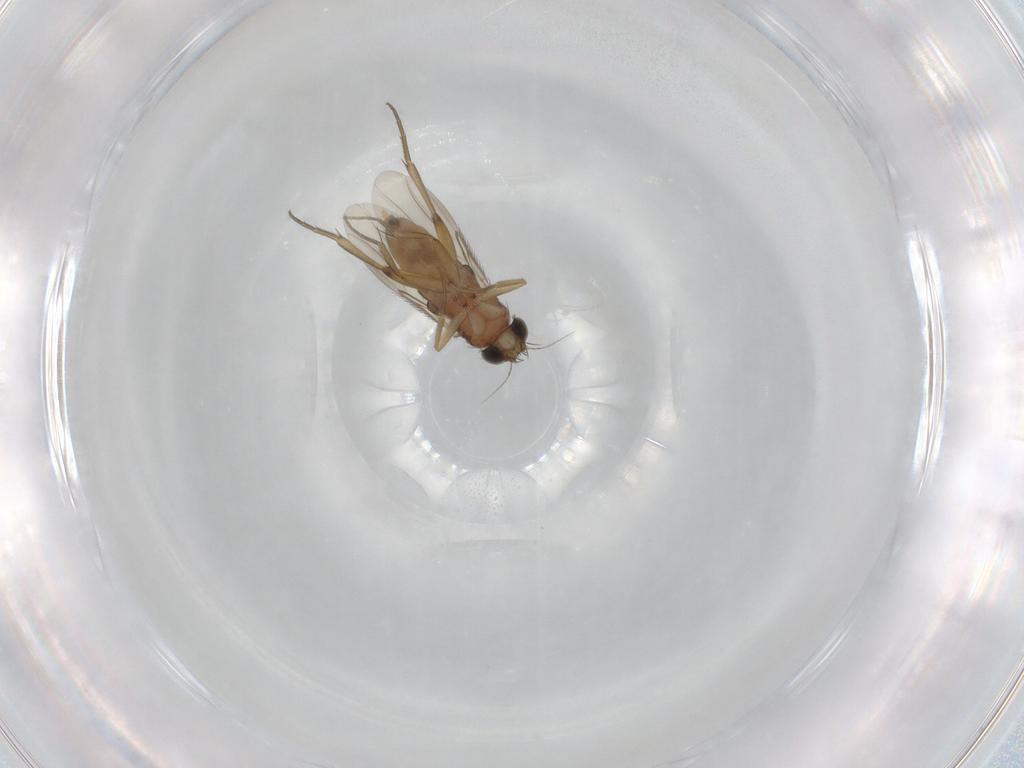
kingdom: Animalia
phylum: Arthropoda
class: Insecta
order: Diptera
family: Phoridae
